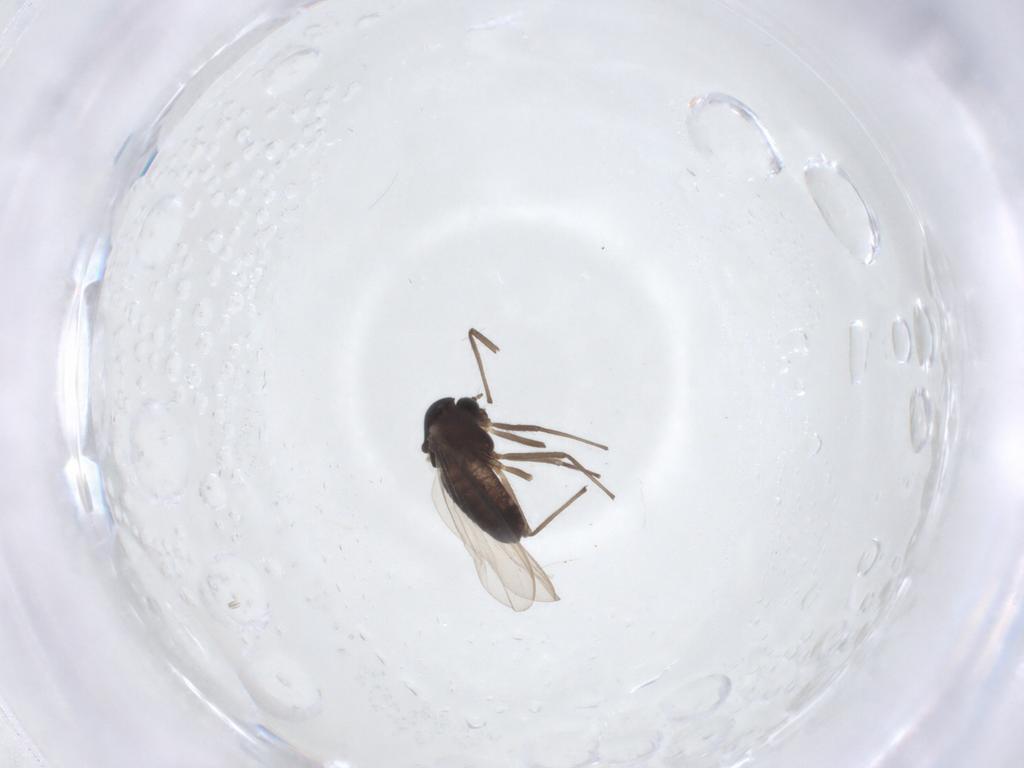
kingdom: Animalia
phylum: Arthropoda
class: Insecta
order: Diptera
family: Chironomidae
